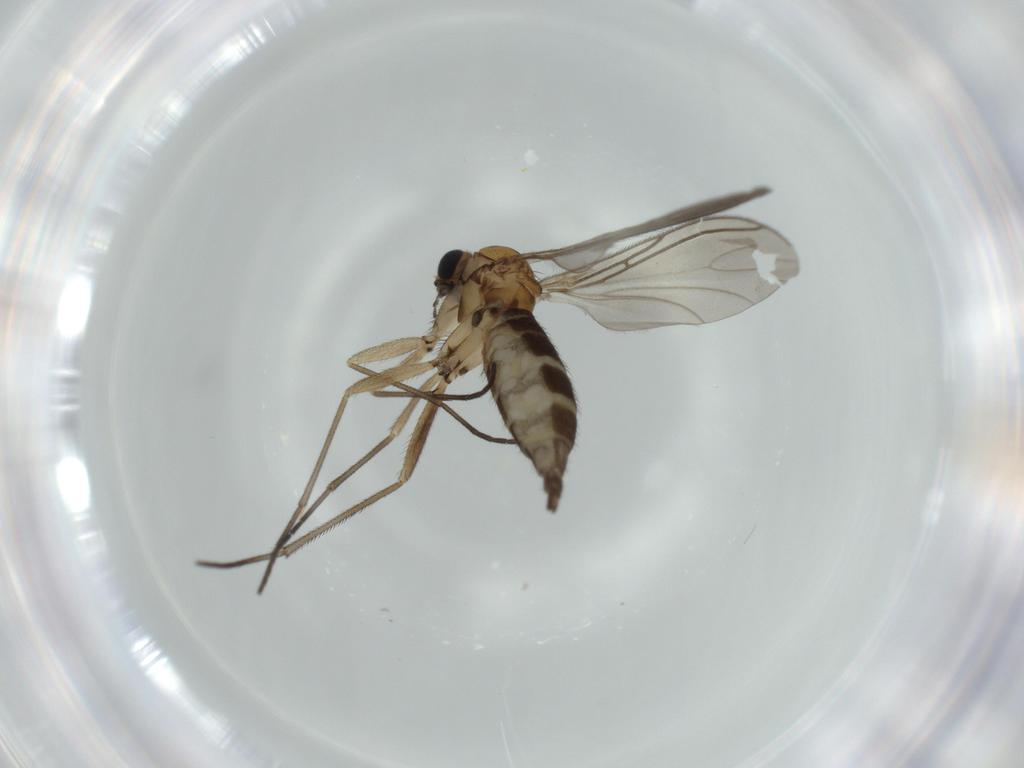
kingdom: Animalia
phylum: Arthropoda
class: Insecta
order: Diptera
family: Sciaridae
